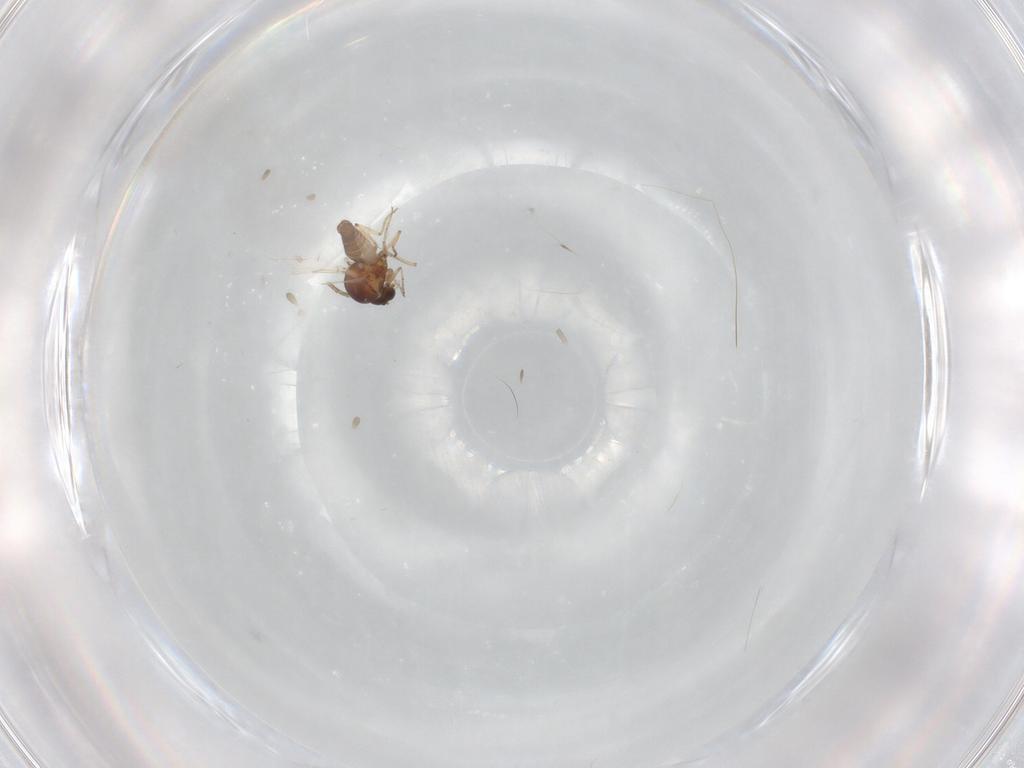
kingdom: Animalia
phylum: Arthropoda
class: Insecta
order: Diptera
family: Ceratopogonidae
